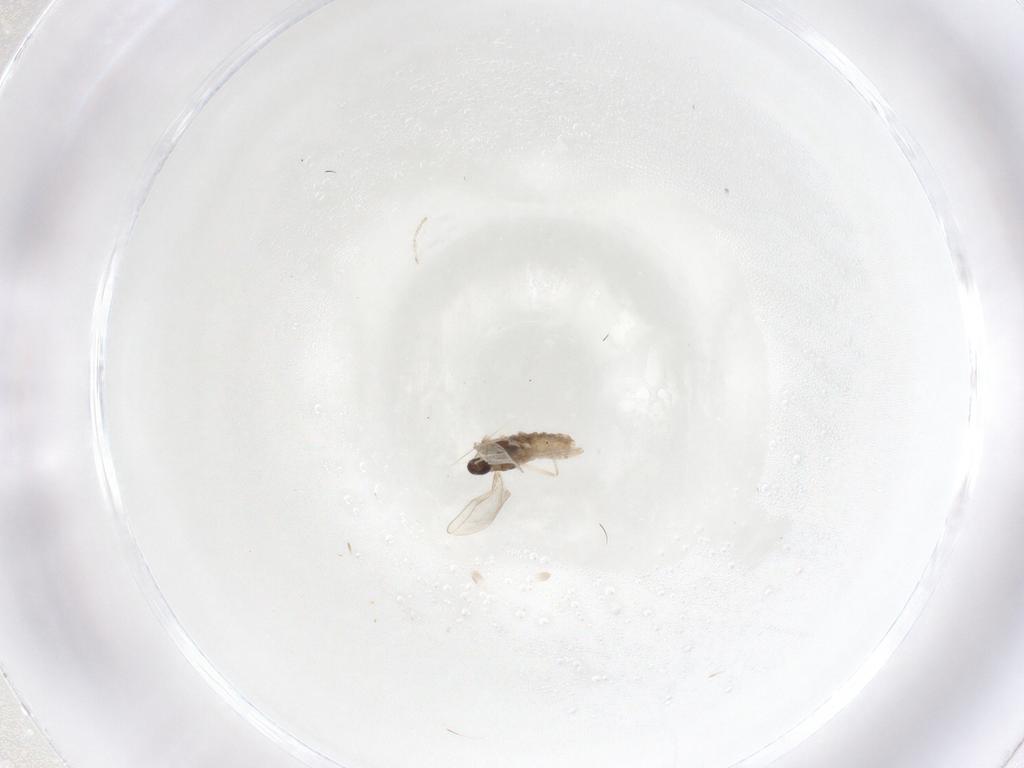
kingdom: Animalia
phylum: Arthropoda
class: Insecta
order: Diptera
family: Cecidomyiidae
